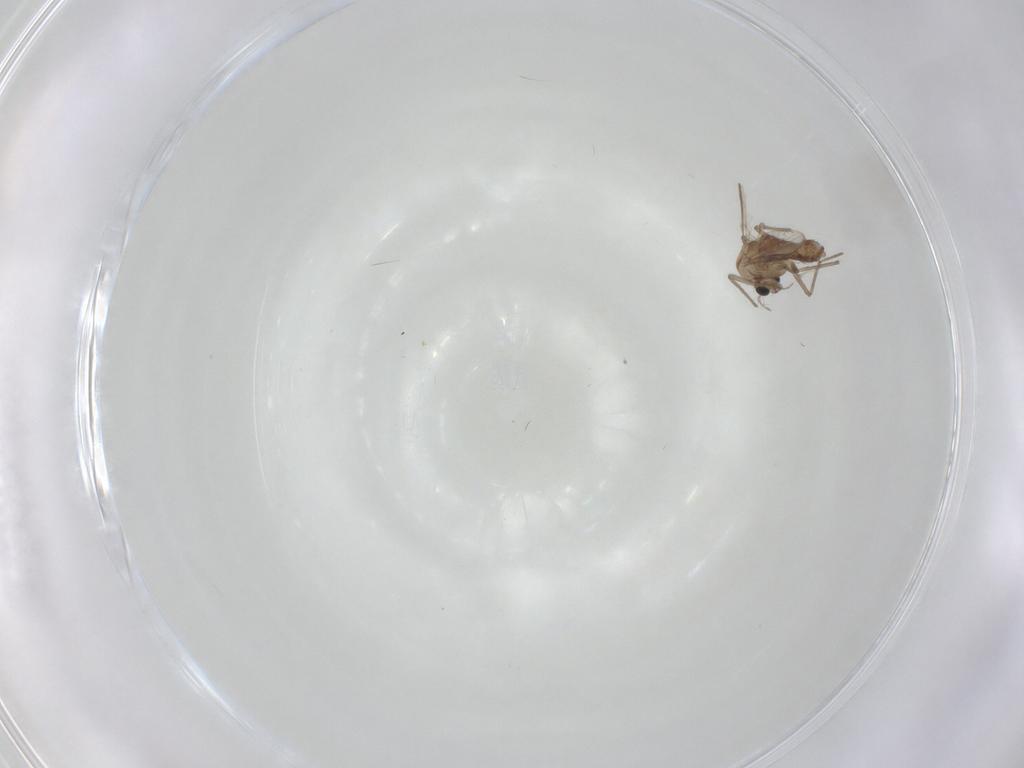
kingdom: Animalia
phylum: Arthropoda
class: Insecta
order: Diptera
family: Chironomidae
